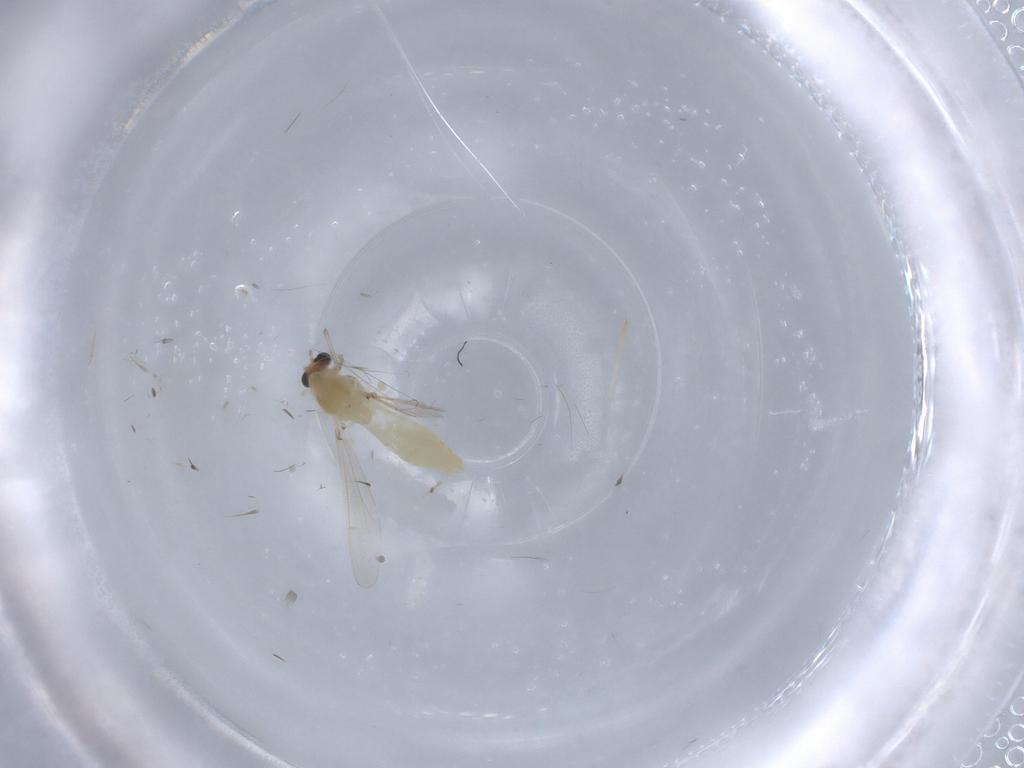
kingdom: Animalia
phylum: Arthropoda
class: Insecta
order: Diptera
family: Chironomidae
